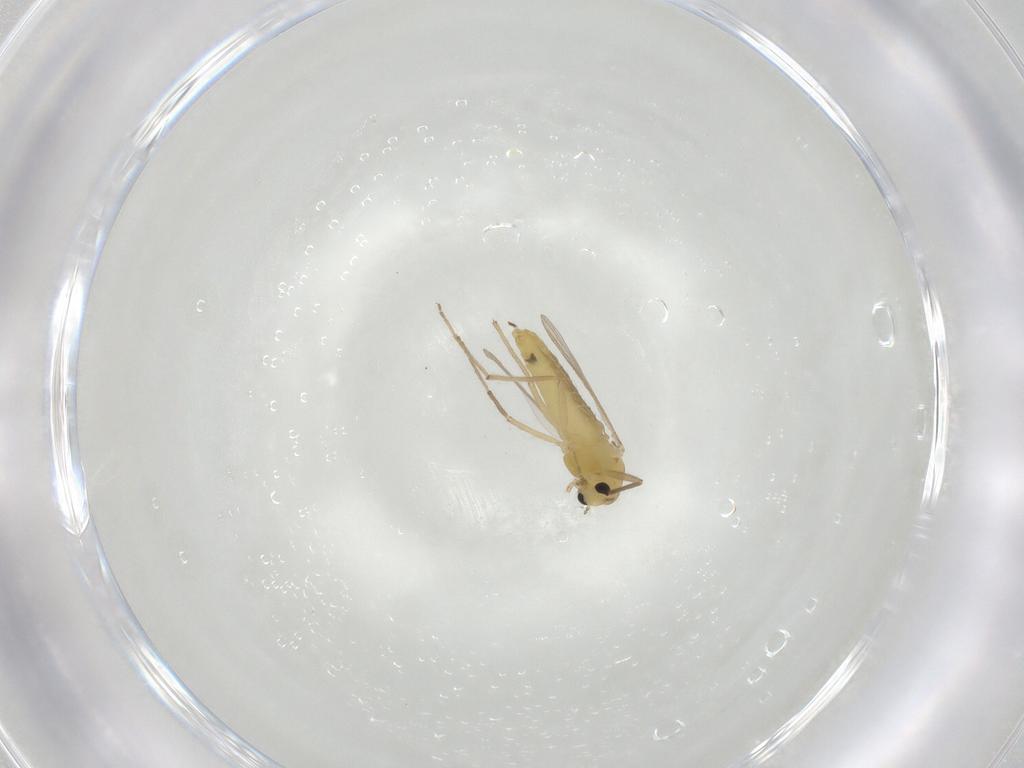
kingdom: Animalia
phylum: Arthropoda
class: Insecta
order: Diptera
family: Chironomidae
